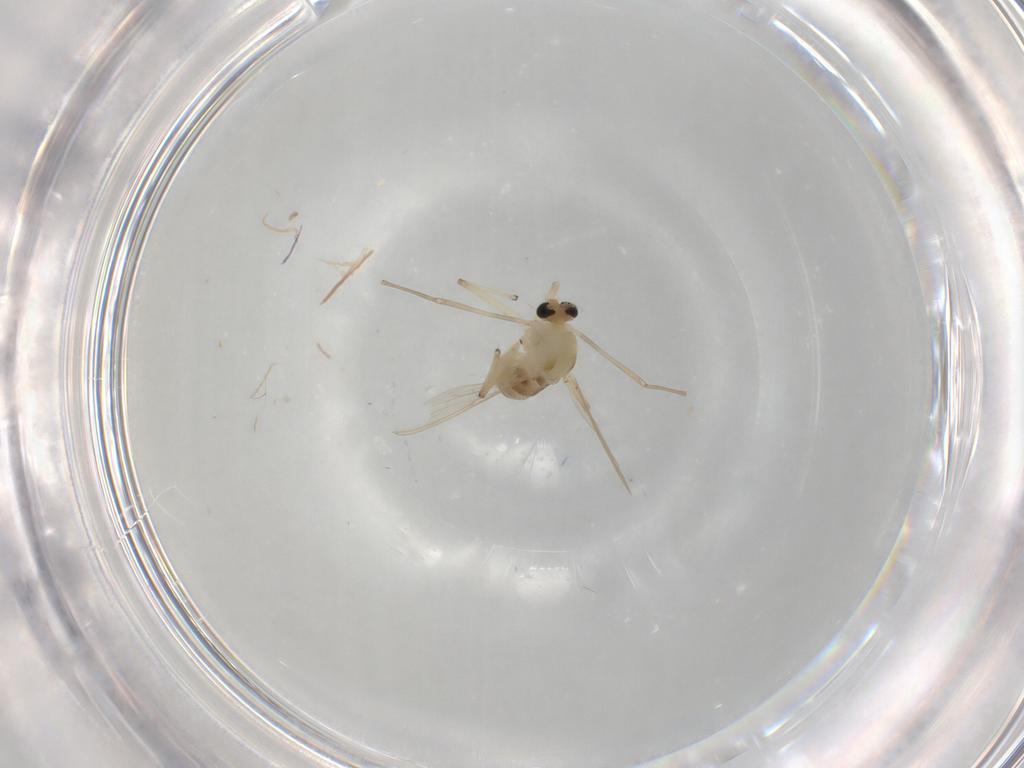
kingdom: Animalia
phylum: Arthropoda
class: Insecta
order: Diptera
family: Chironomidae
